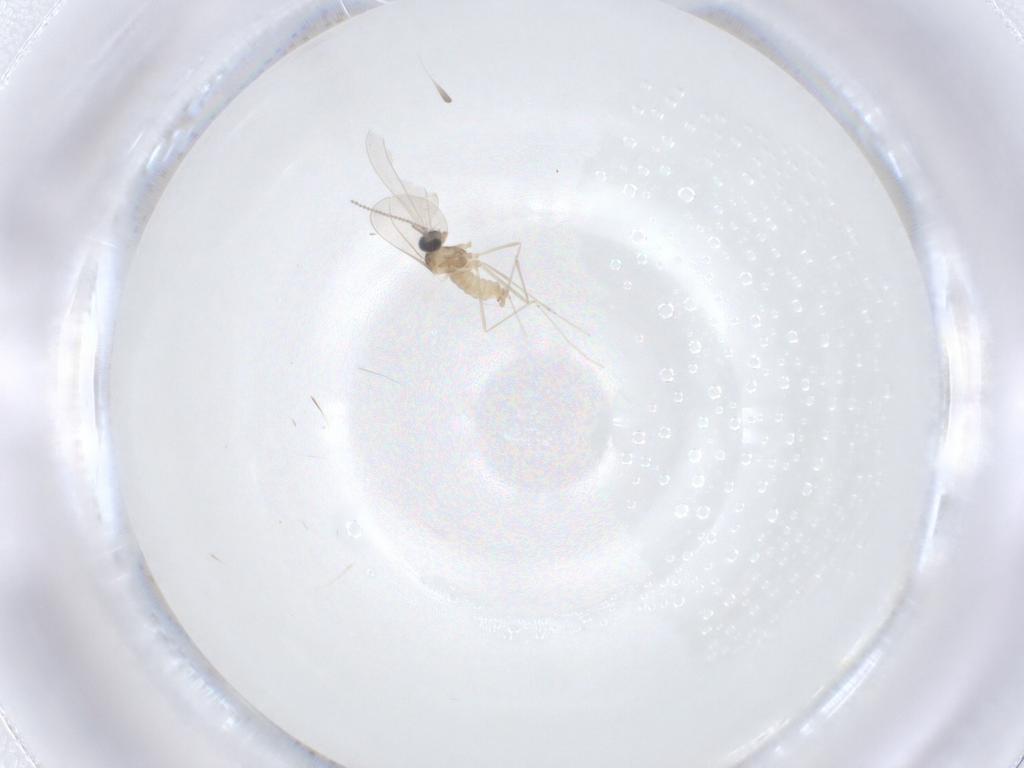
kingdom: Animalia
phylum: Arthropoda
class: Insecta
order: Diptera
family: Cecidomyiidae
